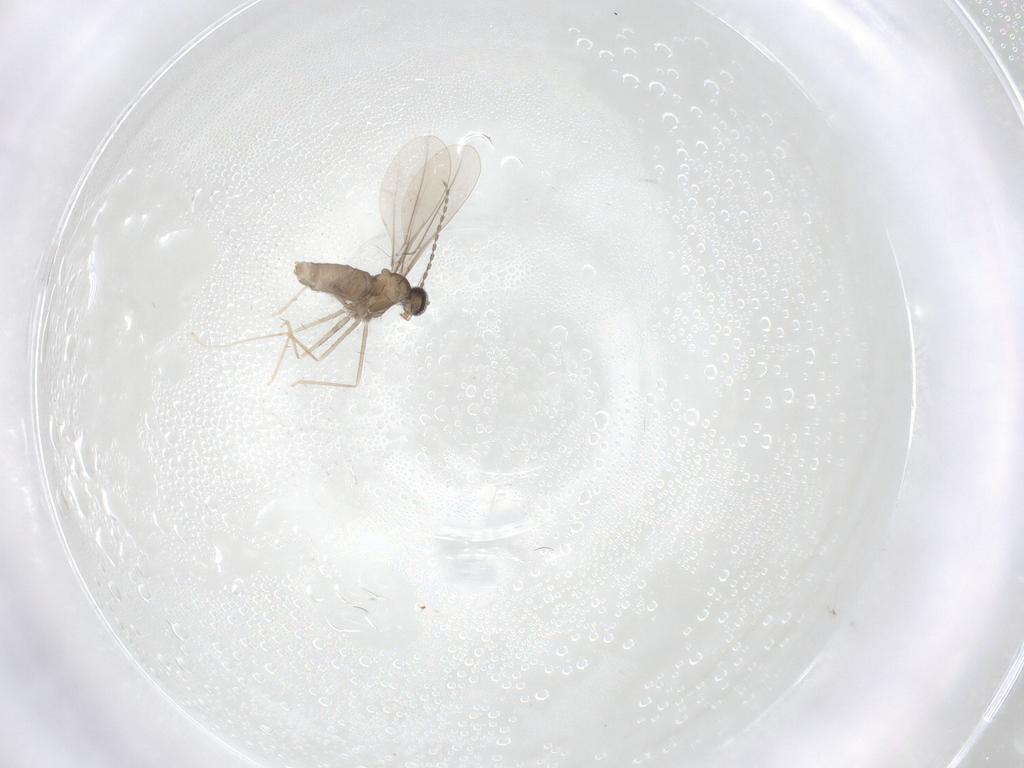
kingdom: Animalia
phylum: Arthropoda
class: Insecta
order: Diptera
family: Cecidomyiidae
